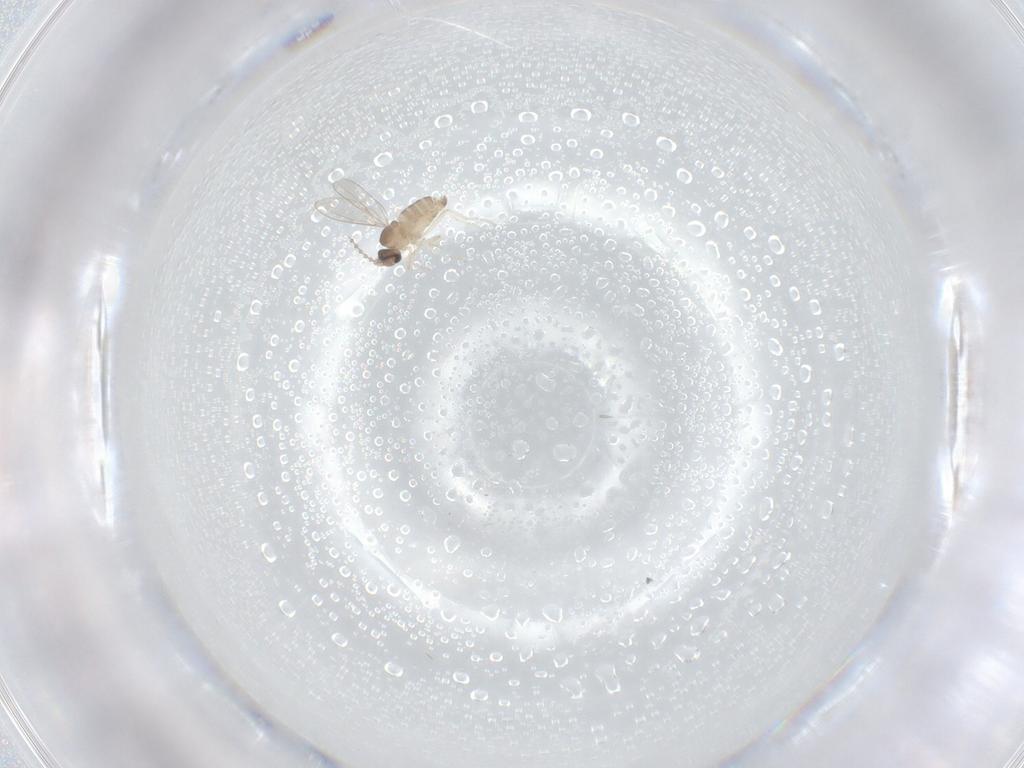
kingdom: Animalia
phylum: Arthropoda
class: Insecta
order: Diptera
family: Cecidomyiidae
